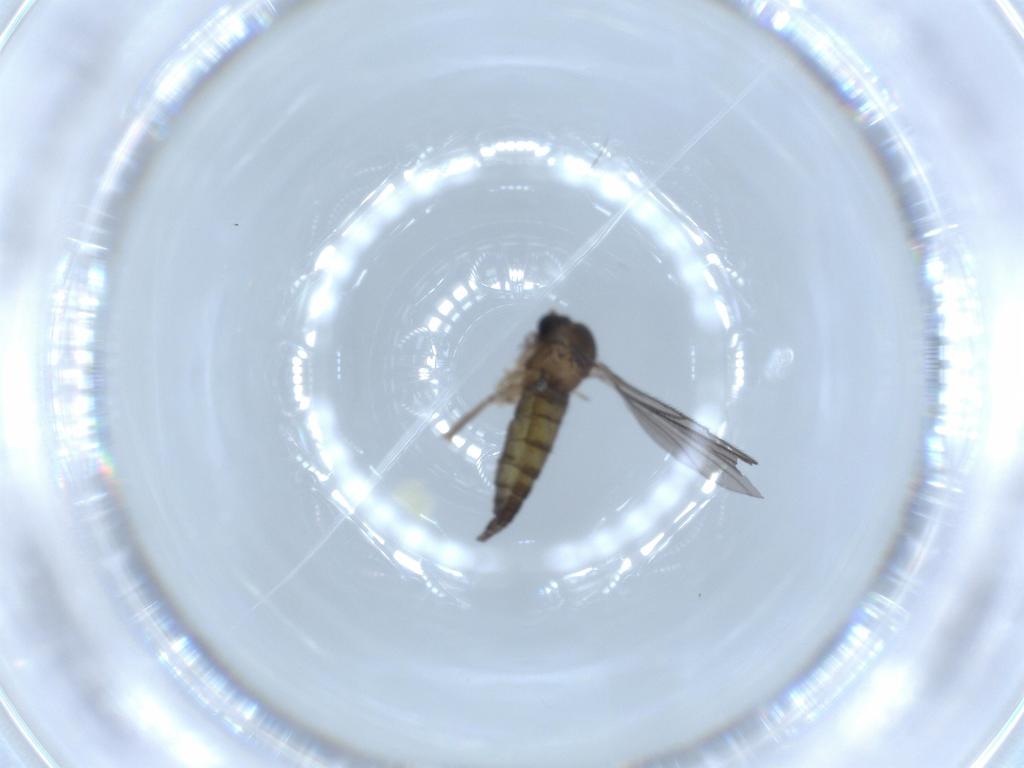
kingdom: Animalia
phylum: Arthropoda
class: Insecta
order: Diptera
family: Sciaridae
